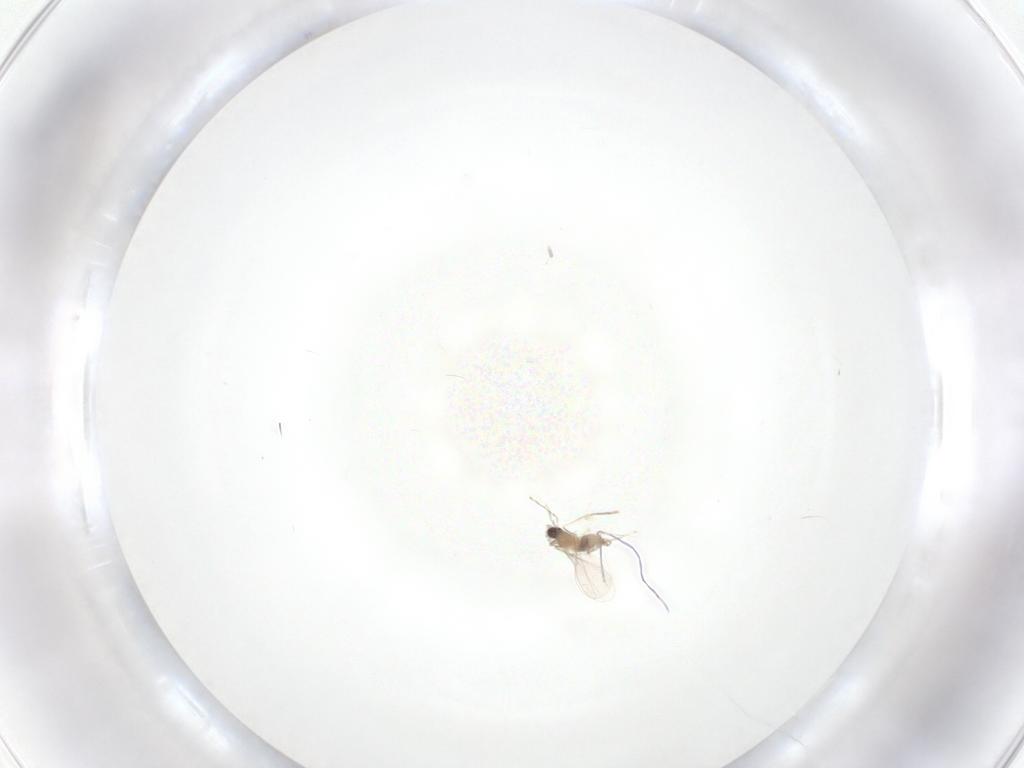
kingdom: Animalia
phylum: Arthropoda
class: Insecta
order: Diptera
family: Cecidomyiidae
